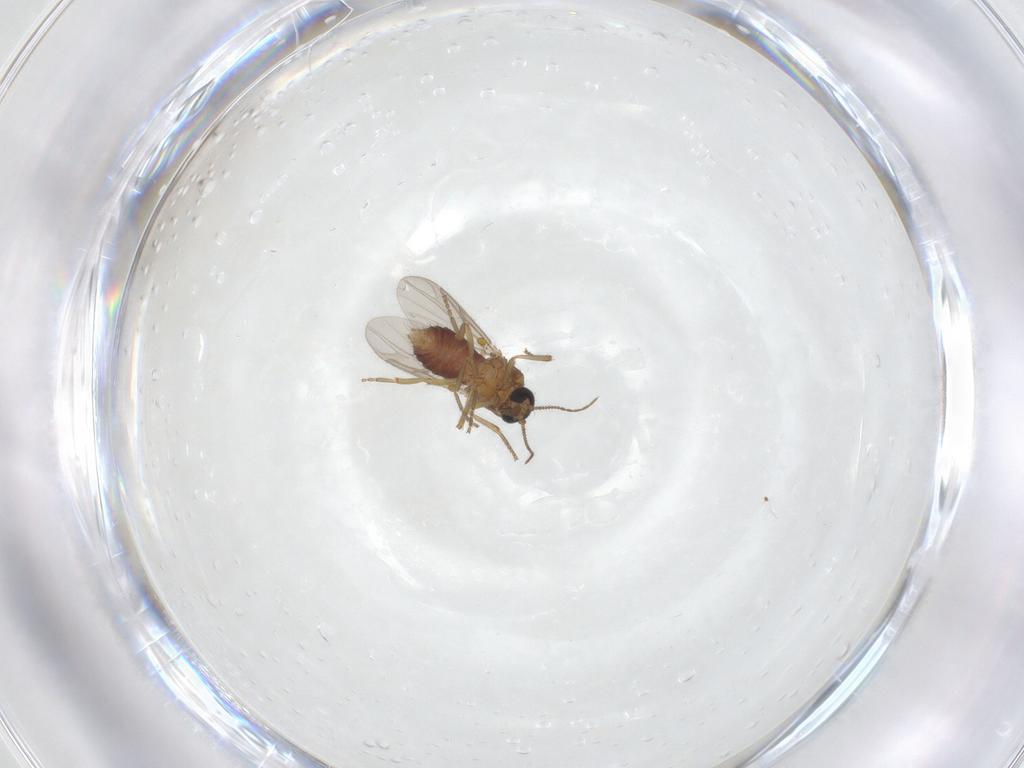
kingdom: Animalia
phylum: Arthropoda
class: Insecta
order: Diptera
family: Ceratopogonidae
